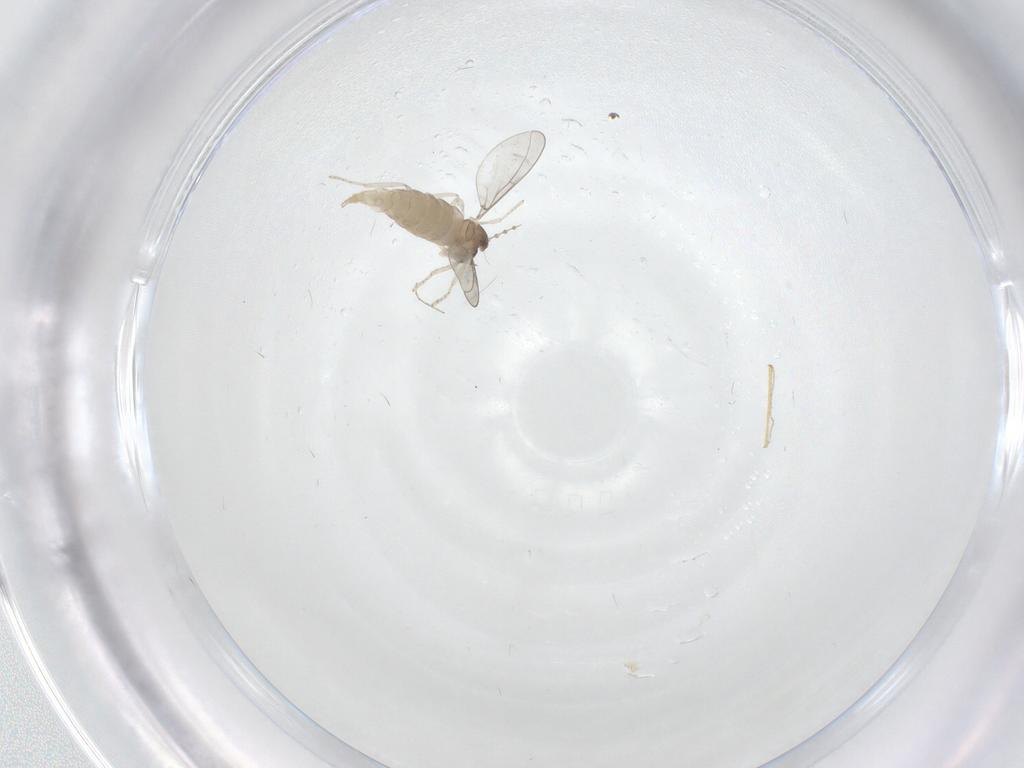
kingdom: Animalia
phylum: Arthropoda
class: Insecta
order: Diptera
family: Cecidomyiidae
